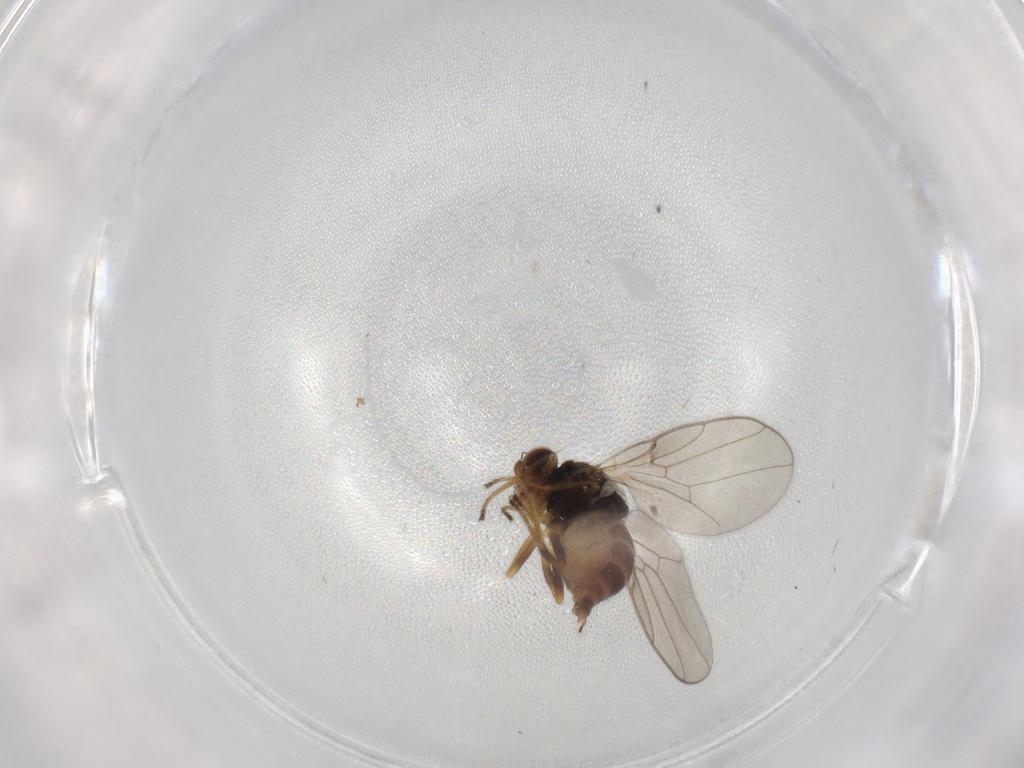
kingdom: Animalia
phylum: Arthropoda
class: Insecta
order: Diptera
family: Chloropidae
